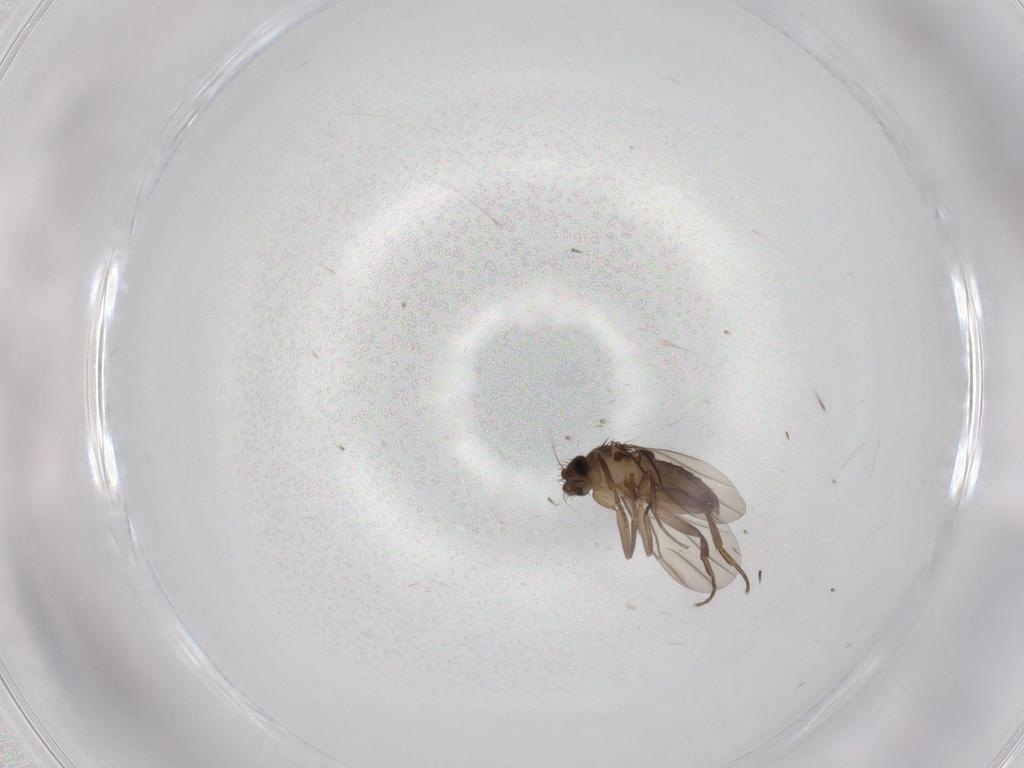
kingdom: Animalia
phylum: Arthropoda
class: Insecta
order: Diptera
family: Phoridae
